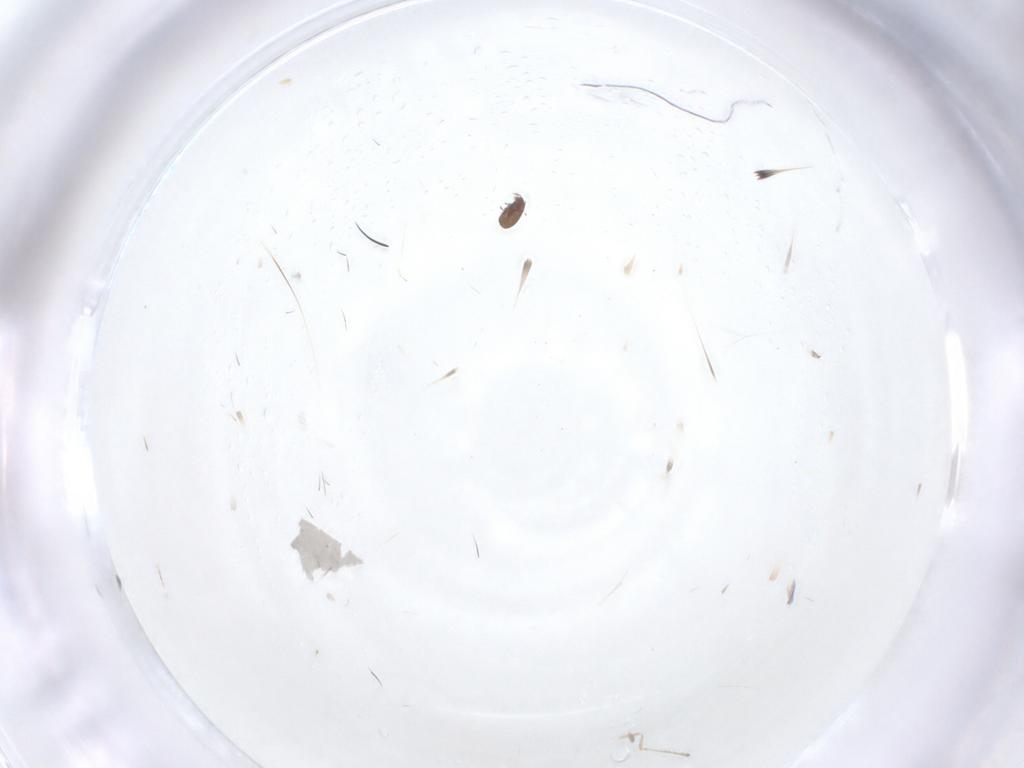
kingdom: Animalia
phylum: Arthropoda
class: Insecta
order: Diptera
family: Cecidomyiidae
